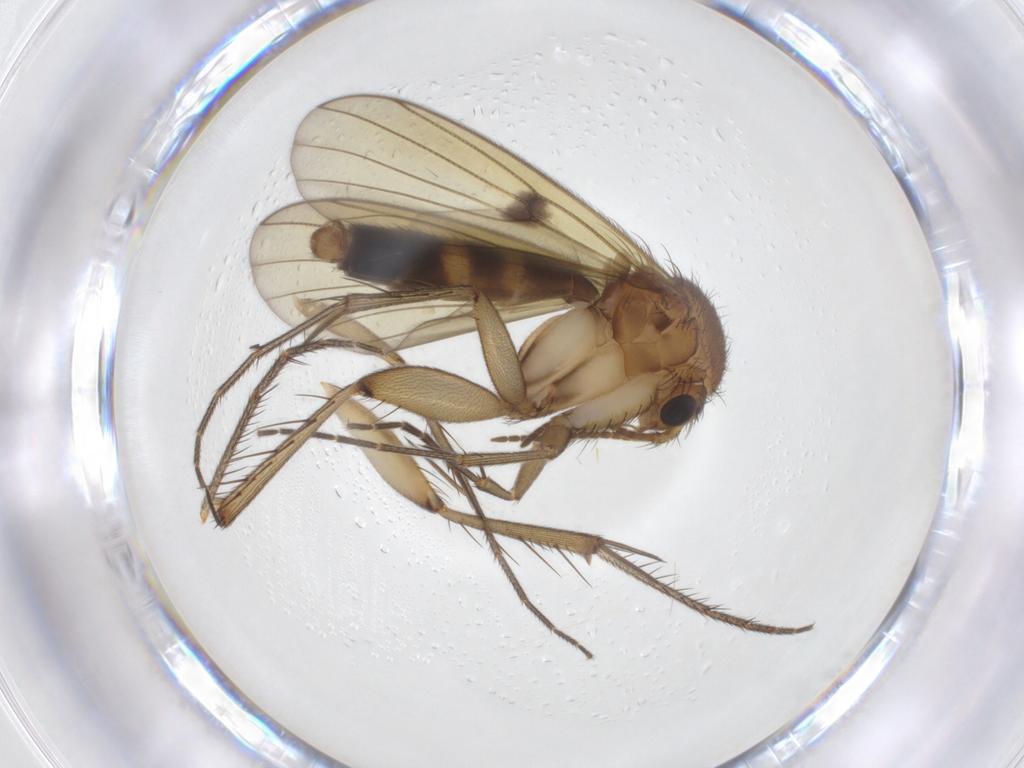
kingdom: Animalia
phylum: Arthropoda
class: Insecta
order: Diptera
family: Mycetophilidae
